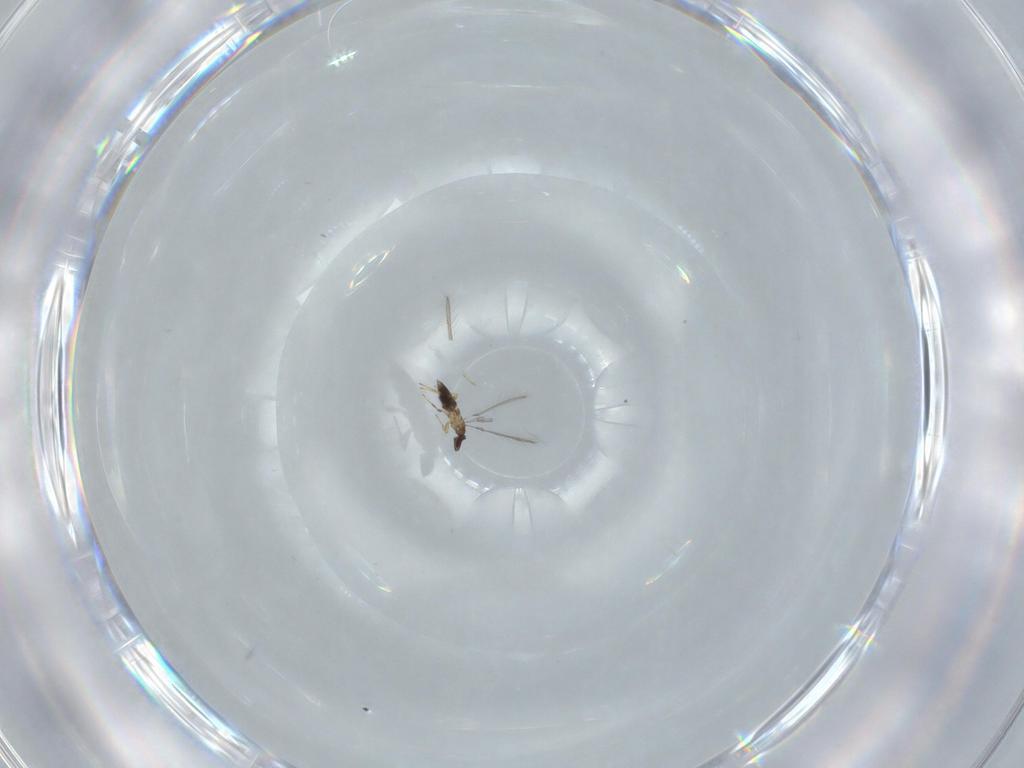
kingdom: Animalia
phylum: Arthropoda
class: Insecta
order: Hymenoptera
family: Mymaridae
